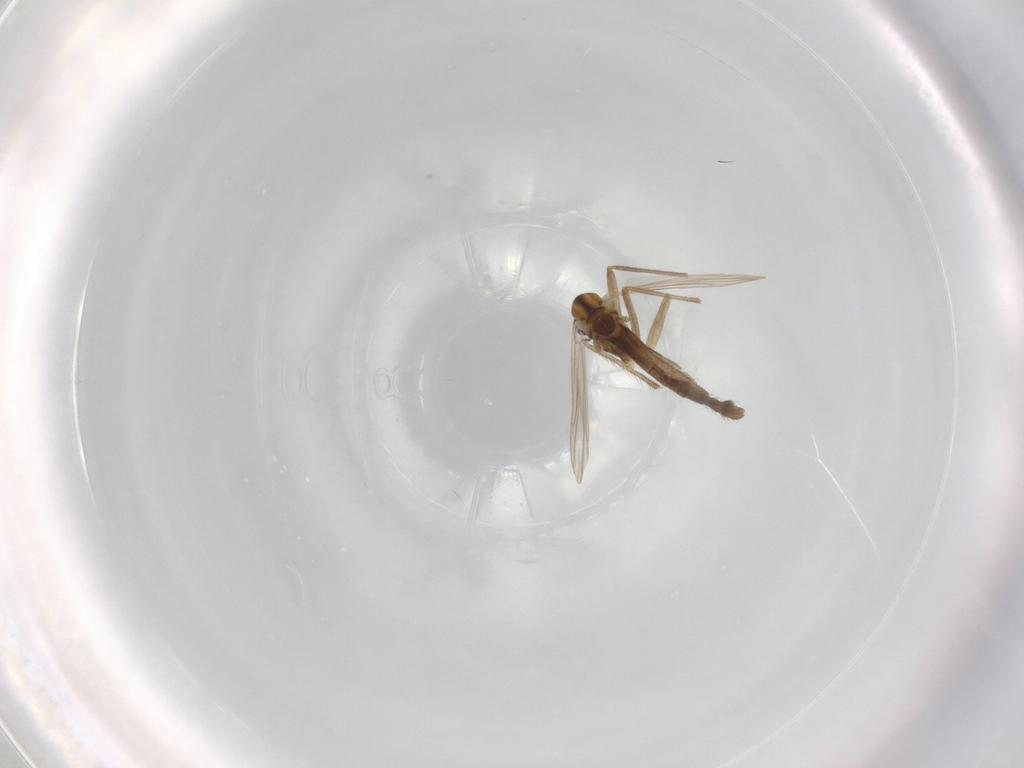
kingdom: Animalia
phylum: Arthropoda
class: Insecta
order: Diptera
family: Chironomidae
